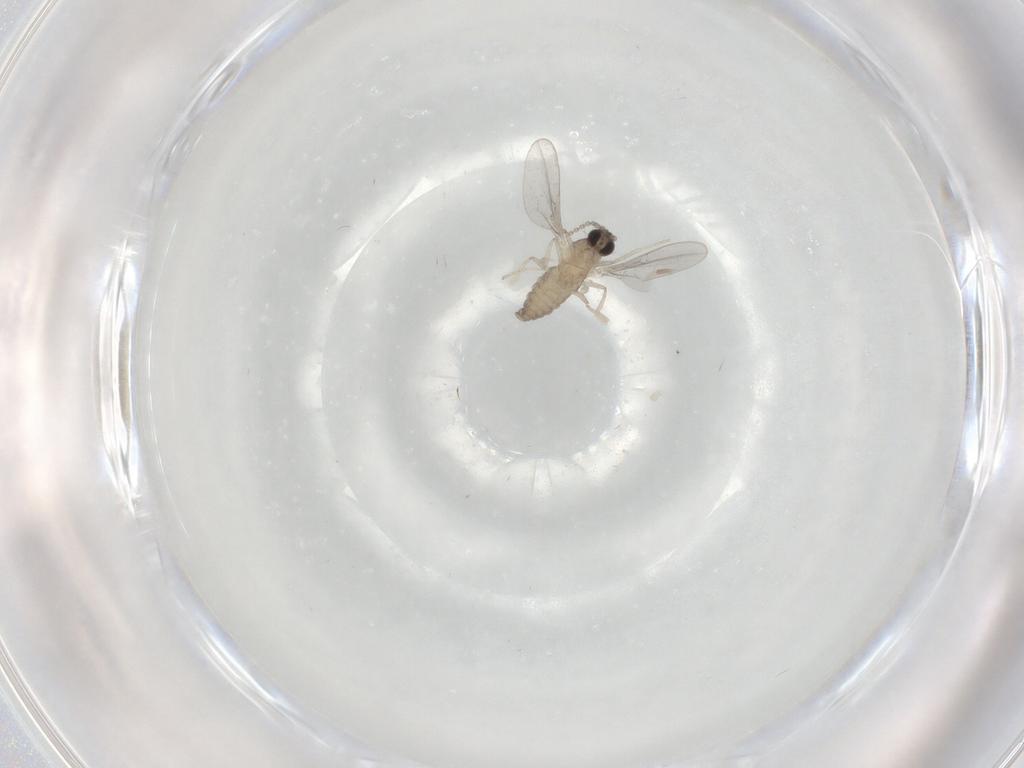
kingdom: Animalia
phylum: Arthropoda
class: Insecta
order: Diptera
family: Cecidomyiidae
